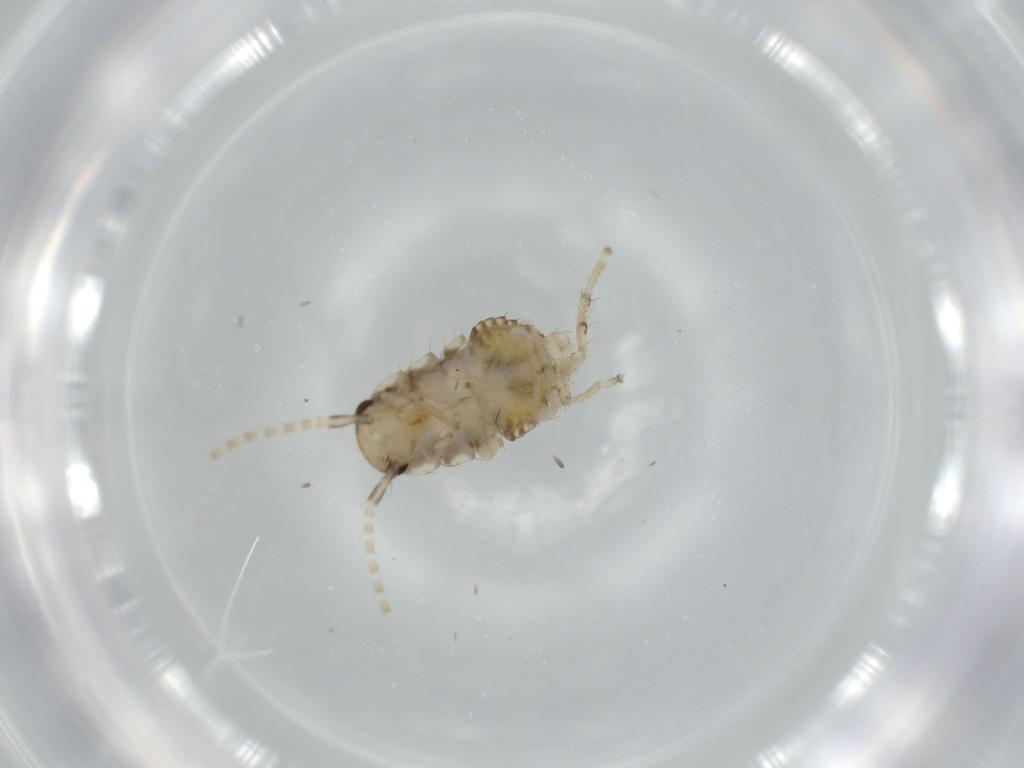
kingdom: Animalia
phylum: Arthropoda
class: Insecta
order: Blattodea
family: Ectobiidae
